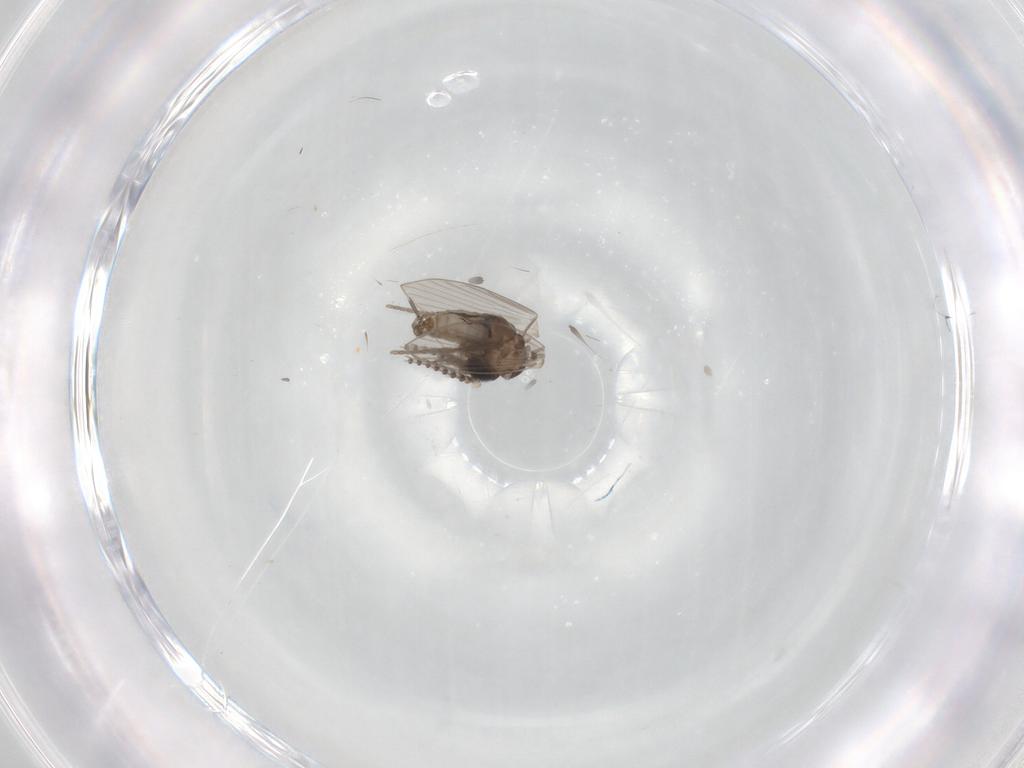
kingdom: Animalia
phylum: Arthropoda
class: Insecta
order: Diptera
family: Psychodidae
